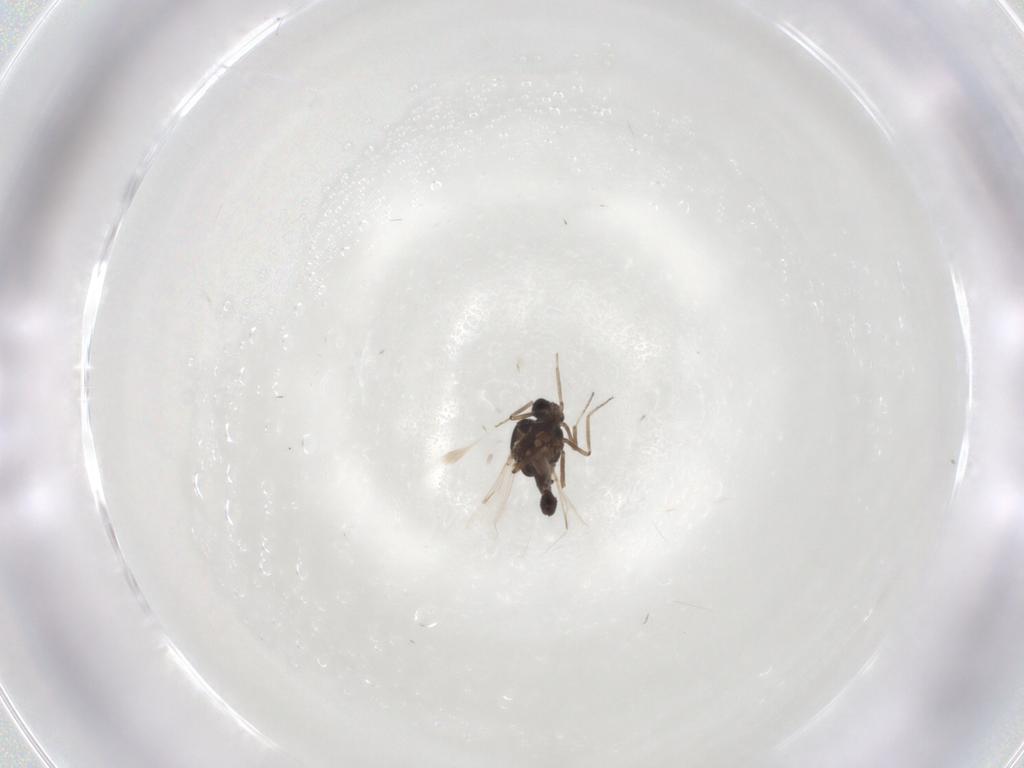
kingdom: Animalia
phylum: Arthropoda
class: Insecta
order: Diptera
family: Ceratopogonidae
